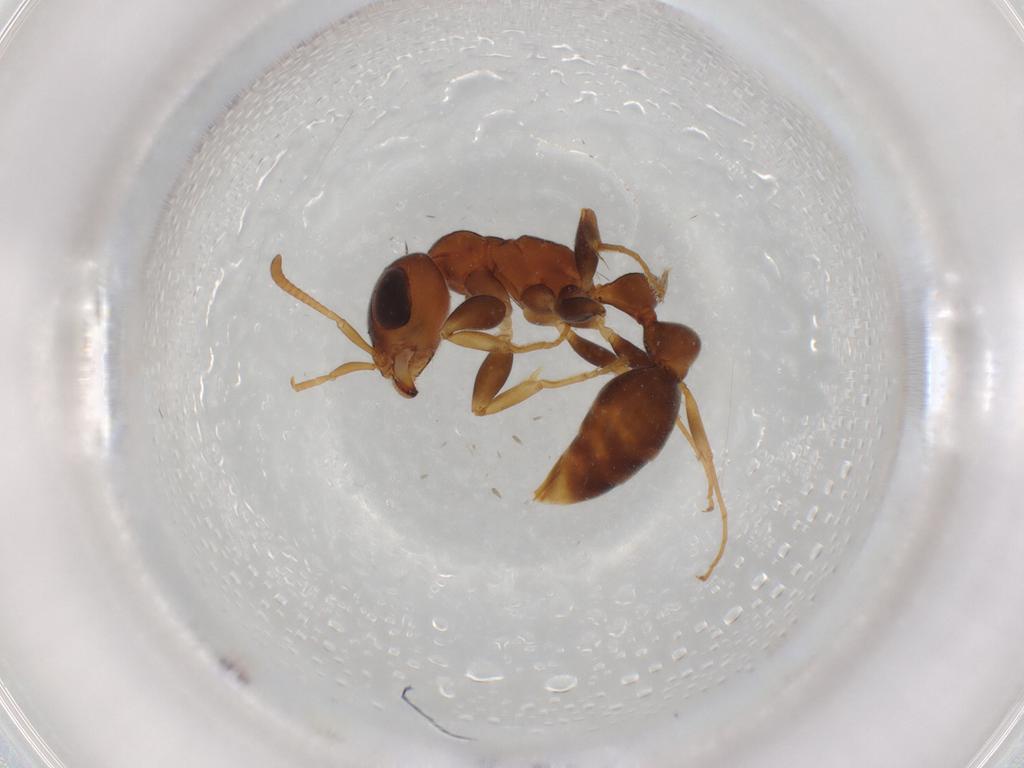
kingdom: Animalia
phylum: Arthropoda
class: Insecta
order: Hymenoptera
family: Formicidae
